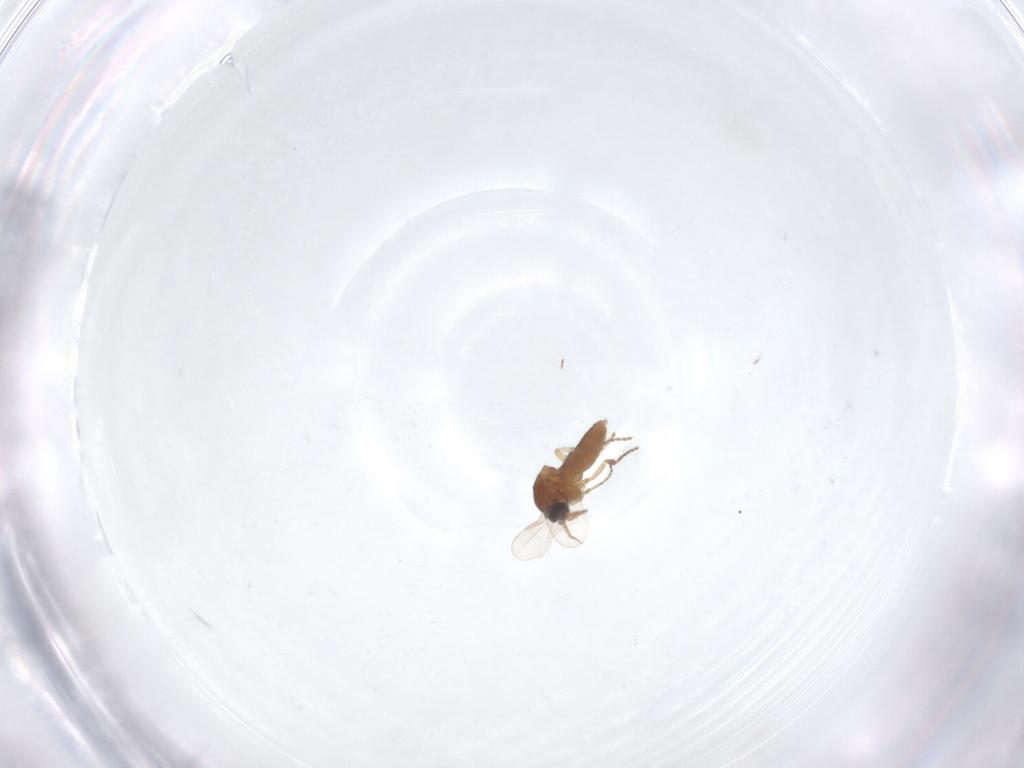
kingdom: Animalia
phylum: Arthropoda
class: Insecta
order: Diptera
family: Ceratopogonidae
